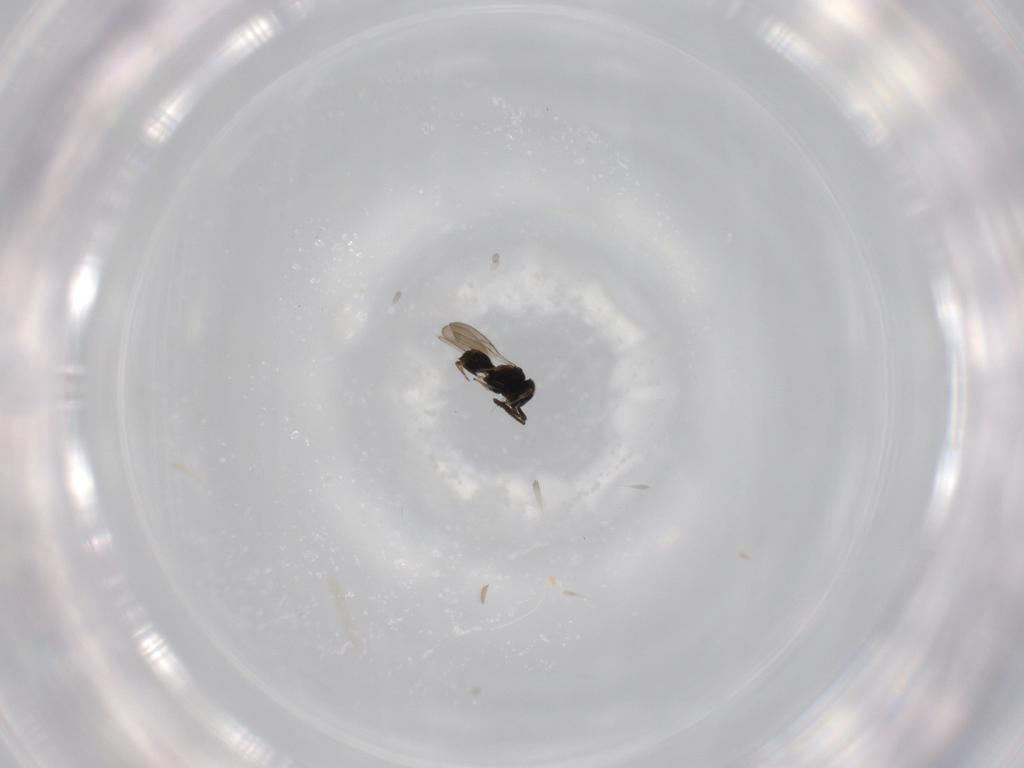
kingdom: Animalia
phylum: Arthropoda
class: Insecta
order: Hymenoptera
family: Scelionidae
